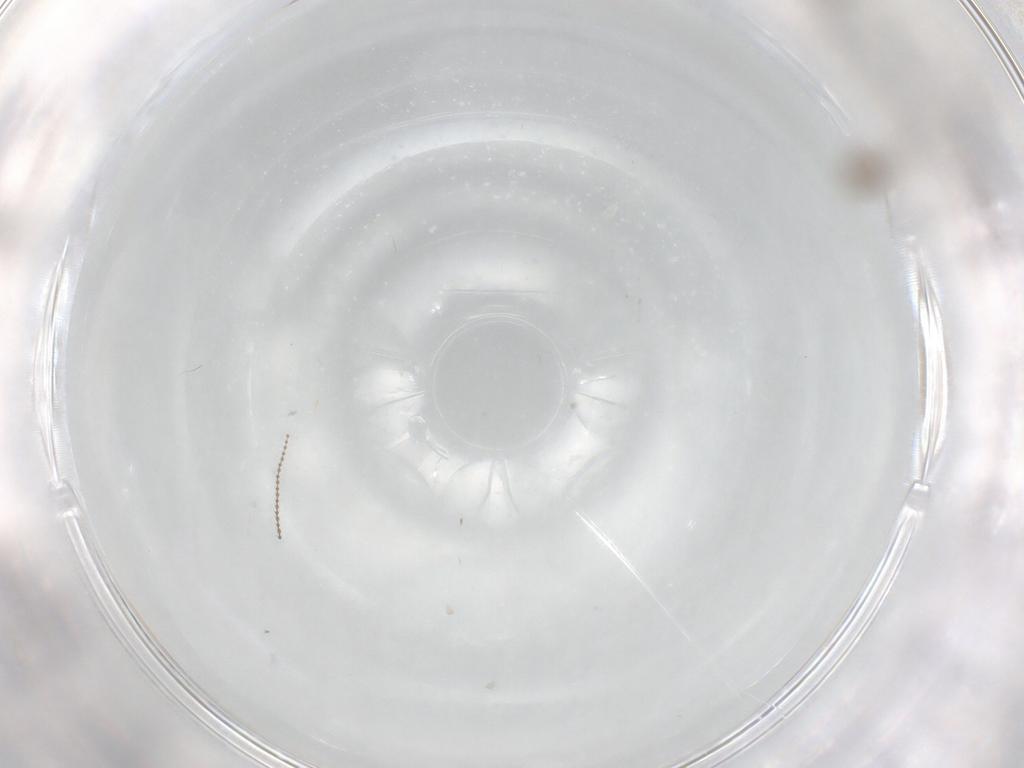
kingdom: Animalia
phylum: Arthropoda
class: Insecta
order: Diptera
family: Cecidomyiidae
